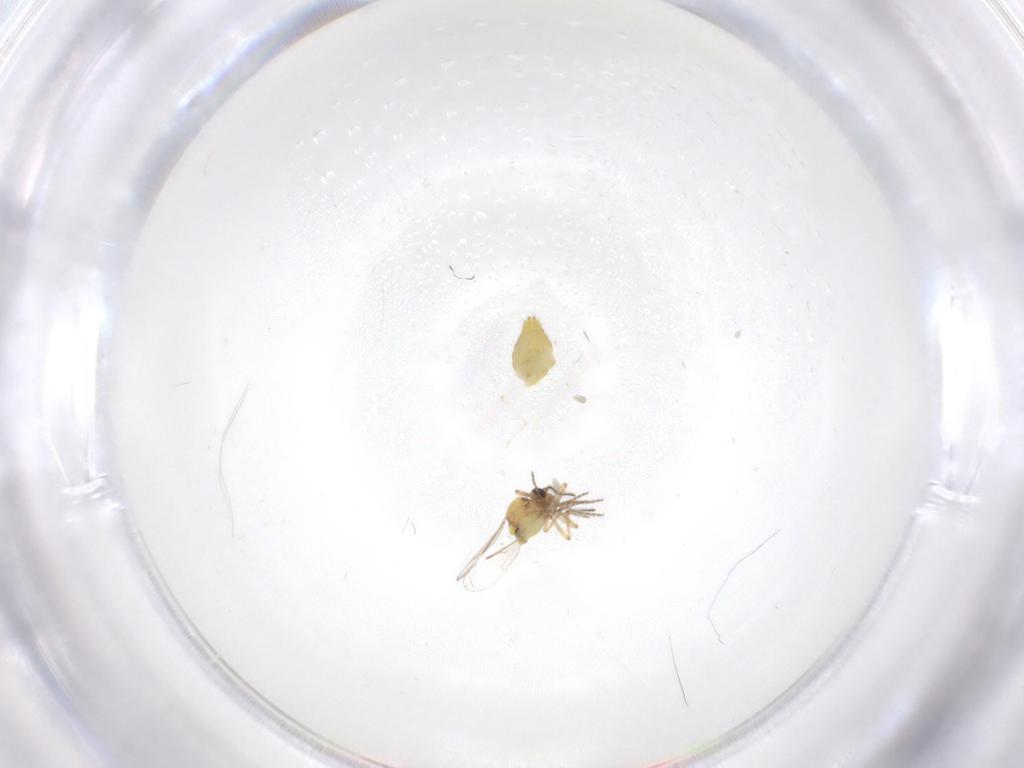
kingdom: Animalia
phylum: Arthropoda
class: Insecta
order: Diptera
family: Ceratopogonidae
